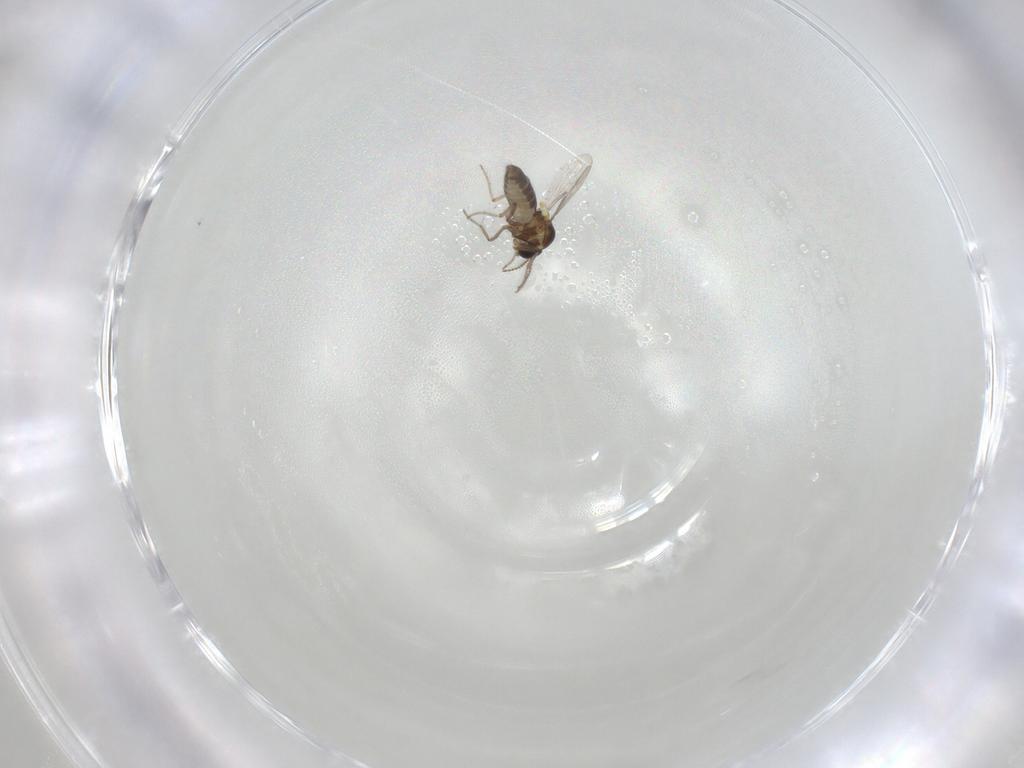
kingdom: Animalia
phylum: Arthropoda
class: Insecta
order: Diptera
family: Ceratopogonidae
